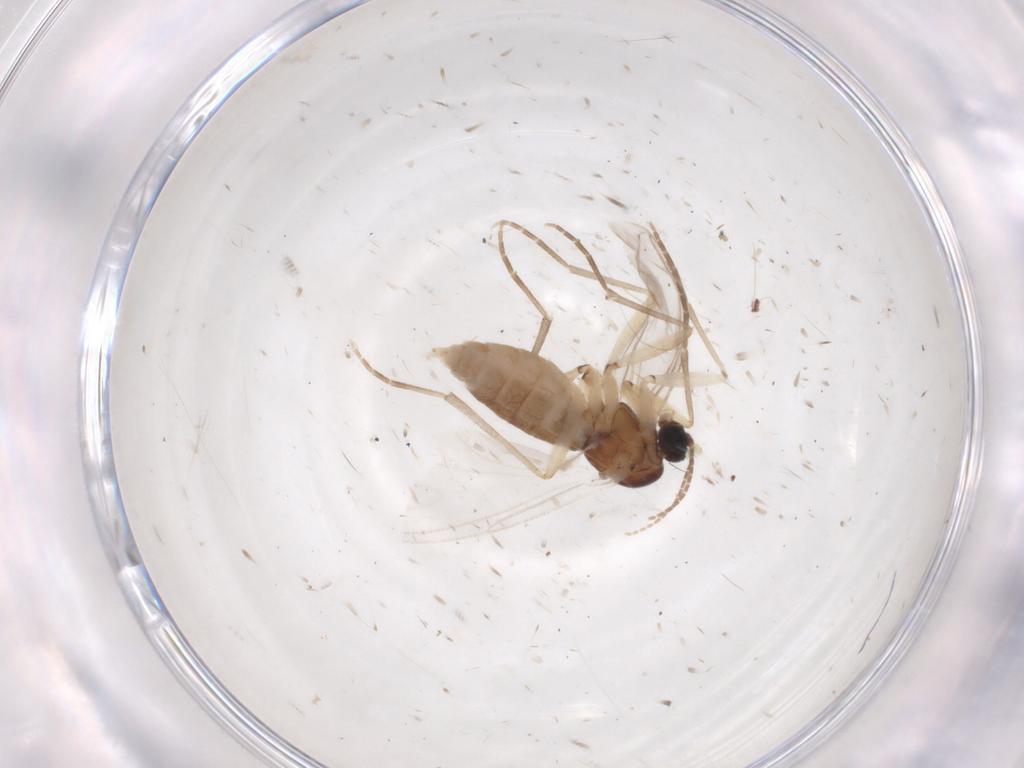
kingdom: Animalia
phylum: Arthropoda
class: Insecta
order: Diptera
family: Sciaridae
